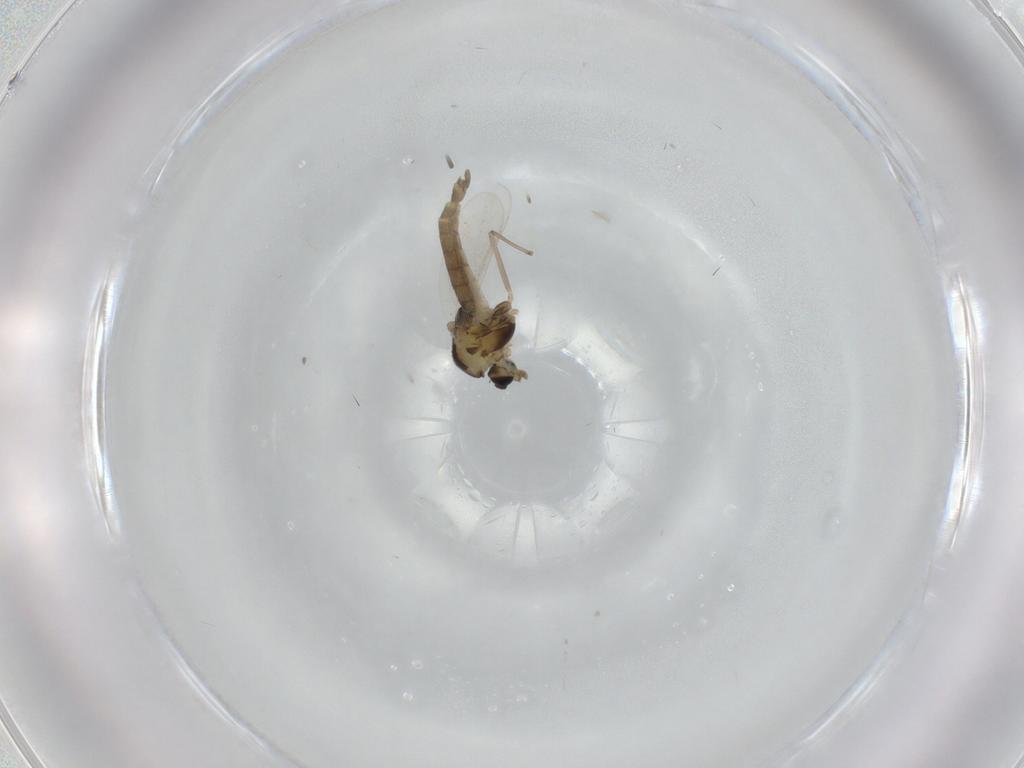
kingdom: Animalia
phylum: Arthropoda
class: Insecta
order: Diptera
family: Chironomidae
